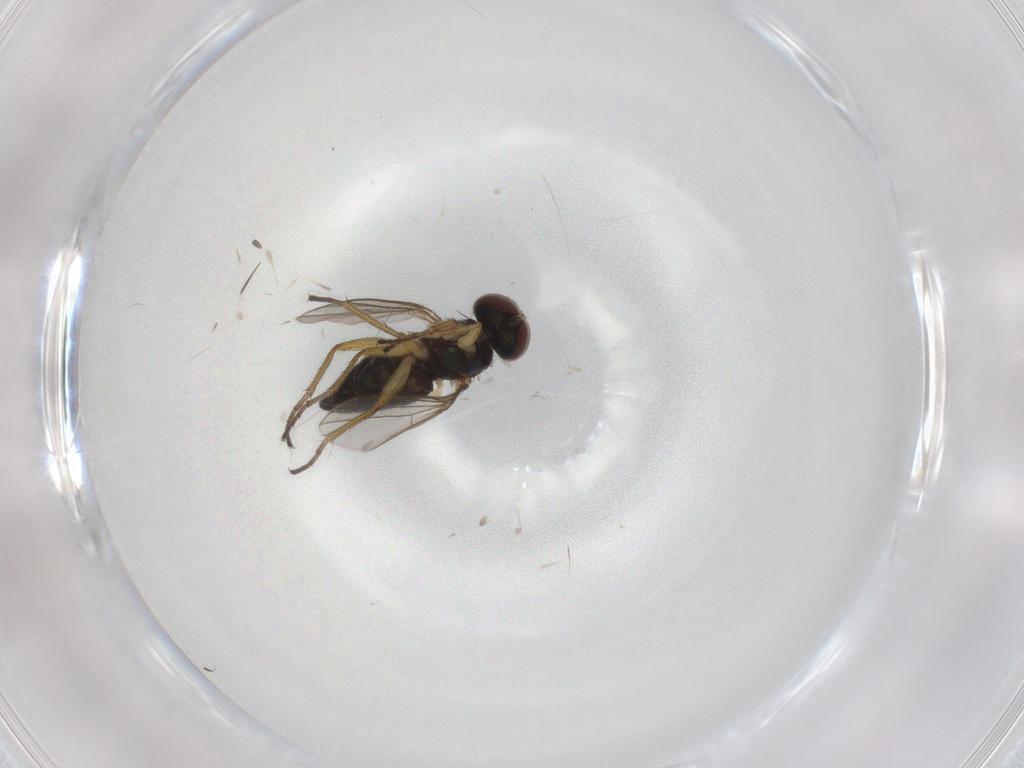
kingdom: Animalia
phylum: Arthropoda
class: Insecta
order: Diptera
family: Dolichopodidae
